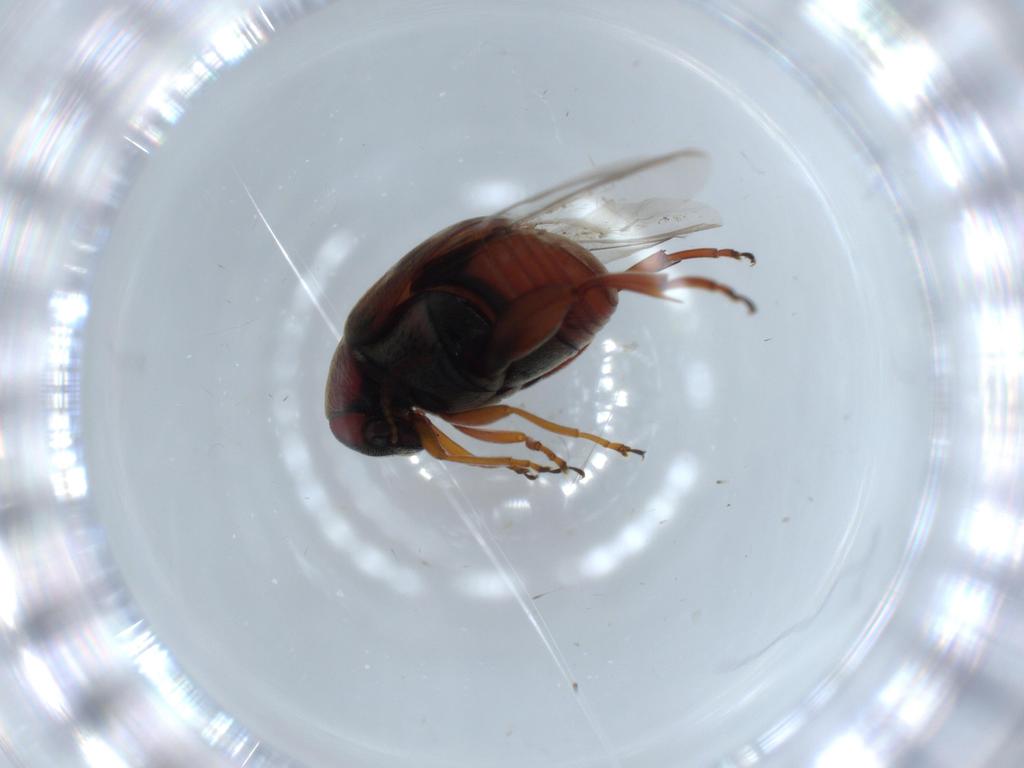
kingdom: Animalia
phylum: Arthropoda
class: Insecta
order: Coleoptera
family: Chrysomelidae
